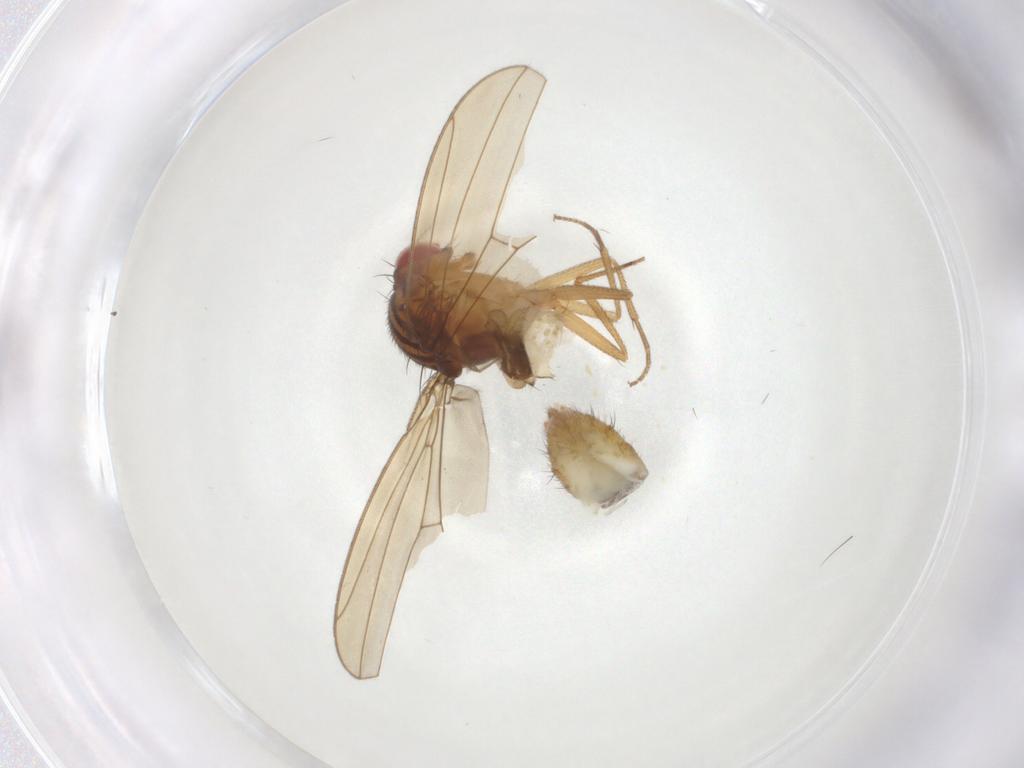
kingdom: Animalia
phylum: Arthropoda
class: Insecta
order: Diptera
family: Drosophilidae
